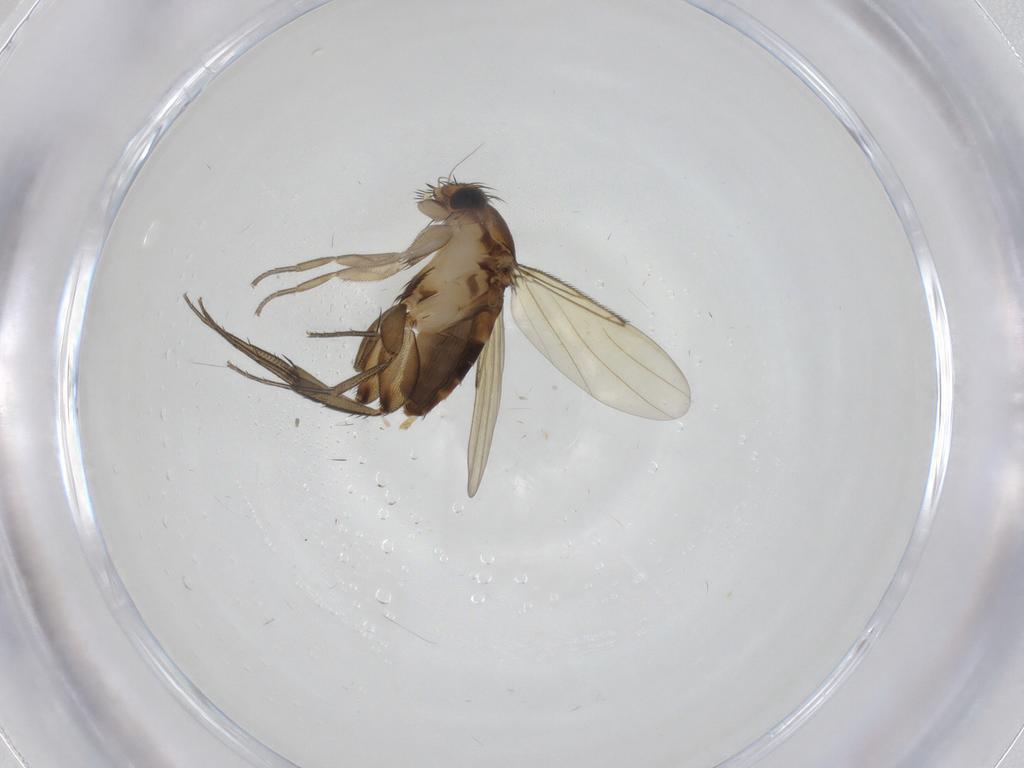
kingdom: Animalia
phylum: Arthropoda
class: Insecta
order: Diptera
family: Phoridae
